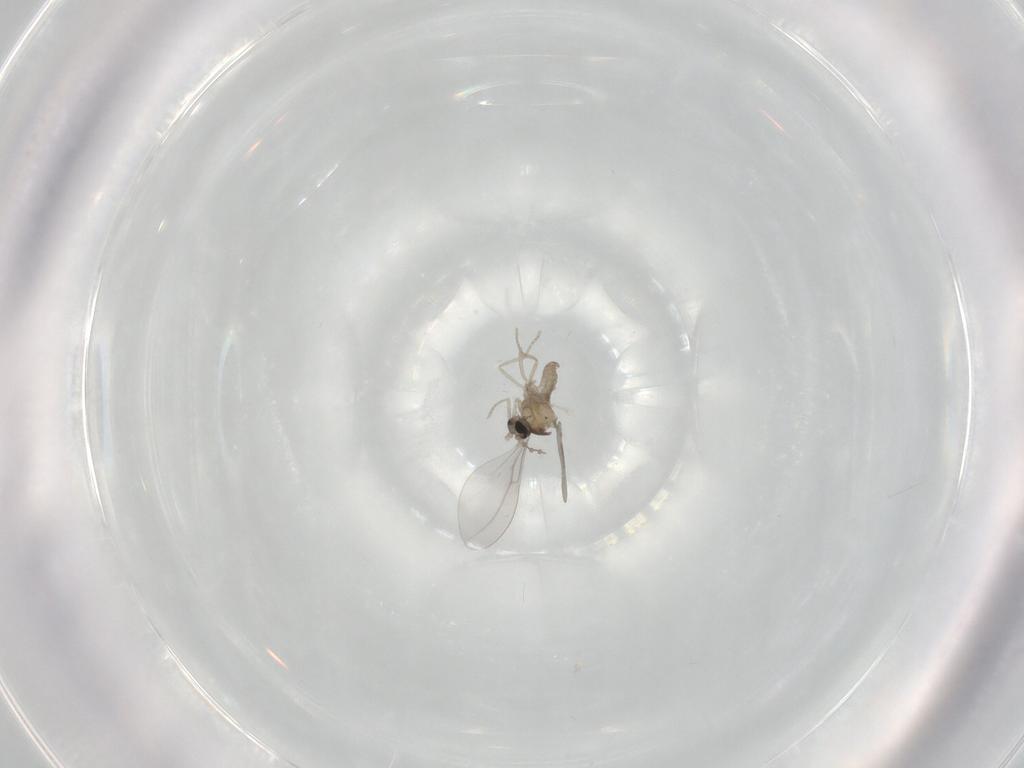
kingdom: Animalia
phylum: Arthropoda
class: Insecta
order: Diptera
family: Cecidomyiidae
